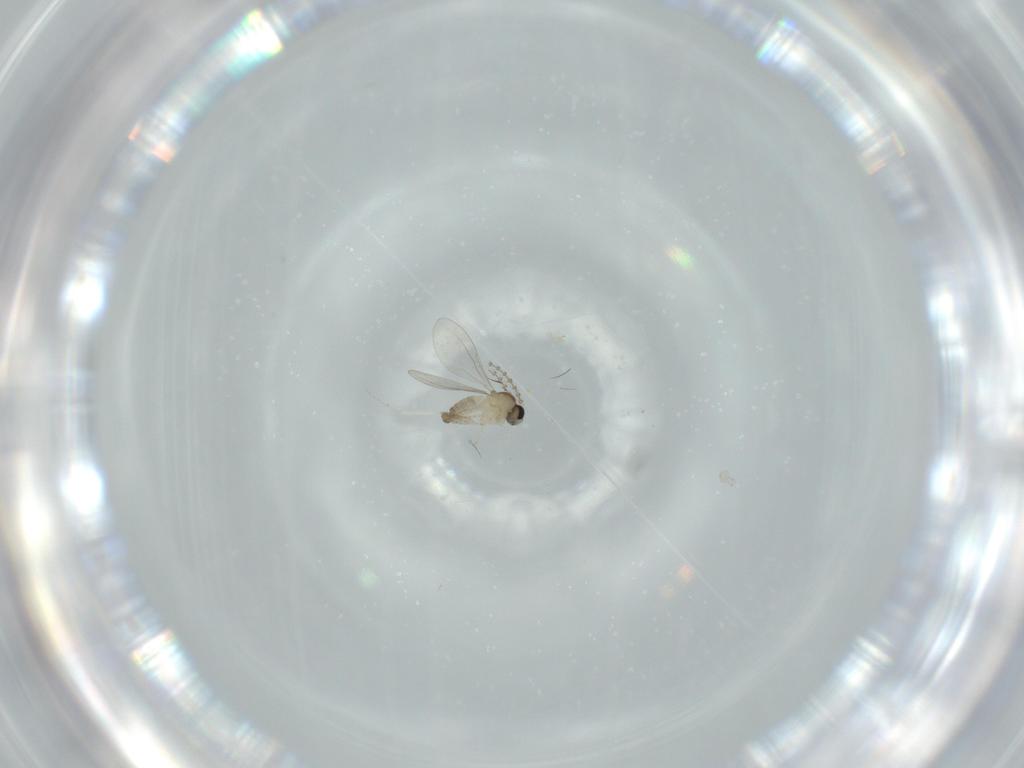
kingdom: Animalia
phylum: Arthropoda
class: Insecta
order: Diptera
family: Cecidomyiidae
